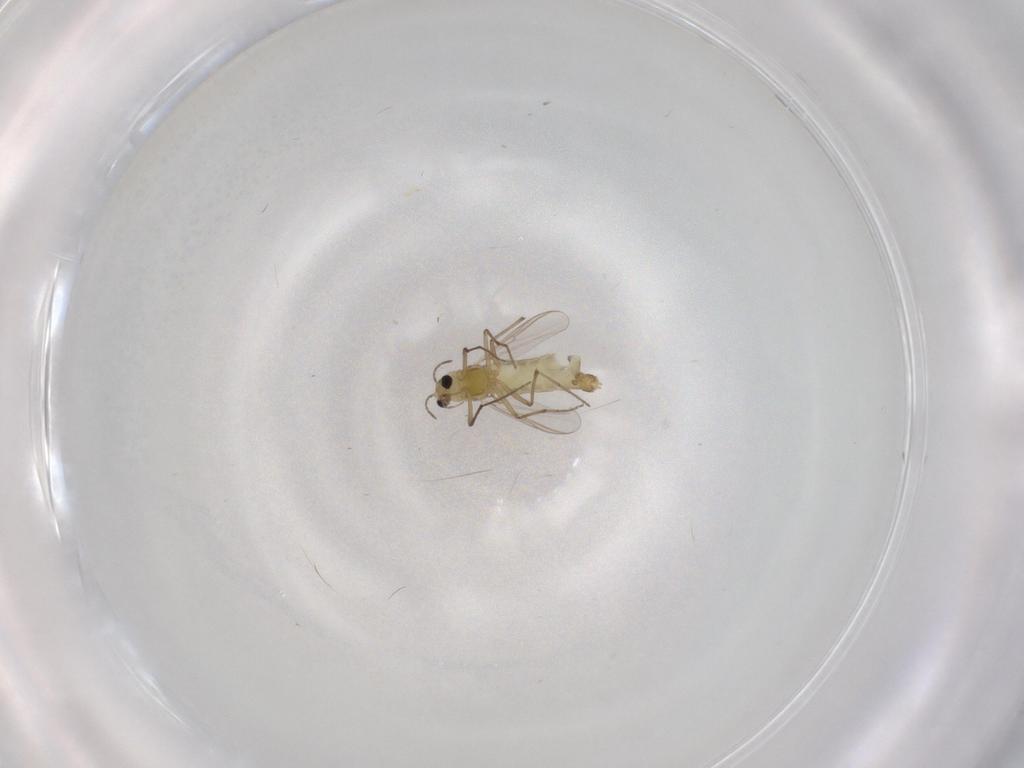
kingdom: Animalia
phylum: Arthropoda
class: Insecta
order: Diptera
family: Chironomidae
